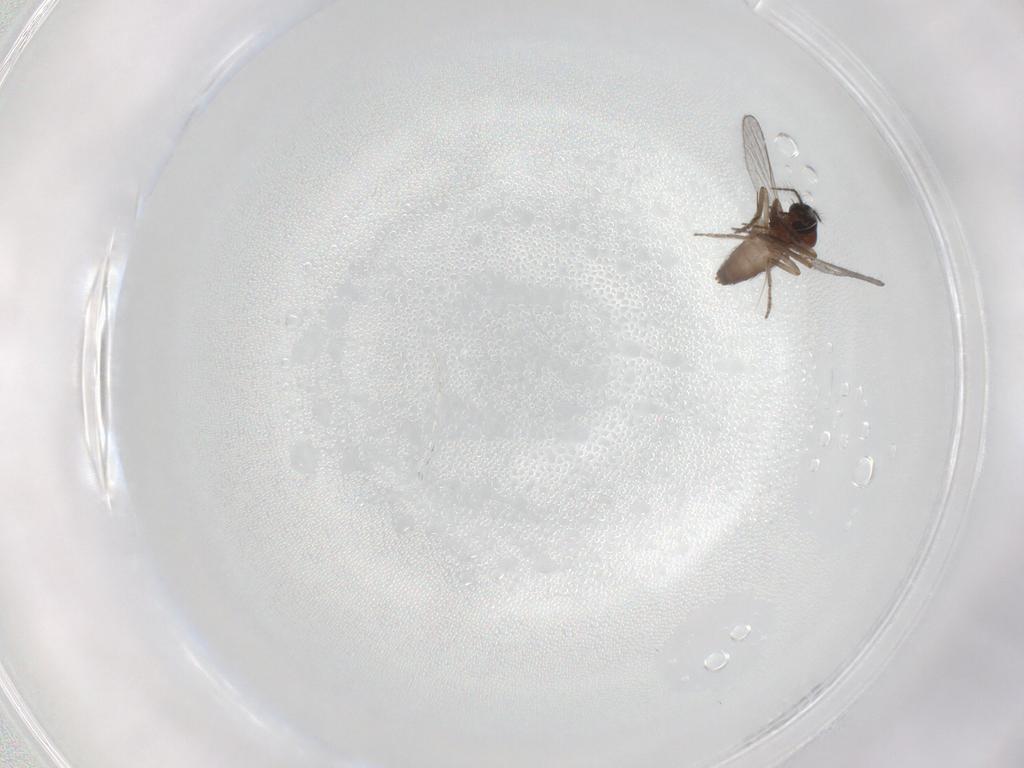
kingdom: Animalia
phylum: Arthropoda
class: Insecta
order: Diptera
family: Ceratopogonidae
